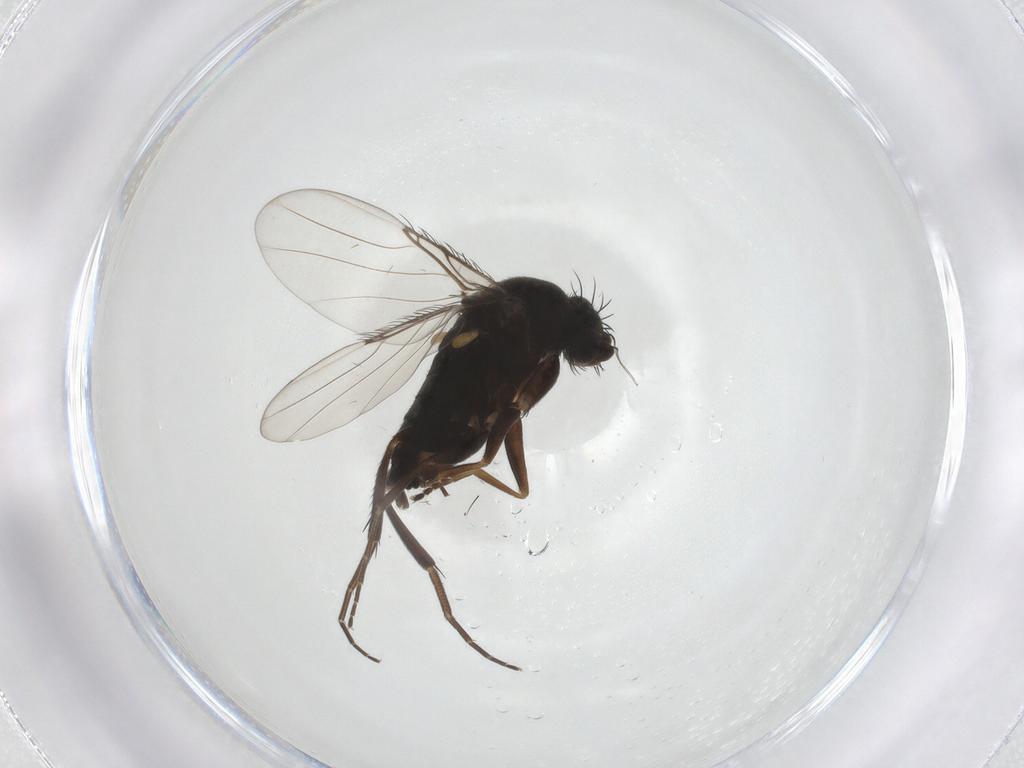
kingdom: Animalia
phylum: Arthropoda
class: Insecta
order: Diptera
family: Phoridae
